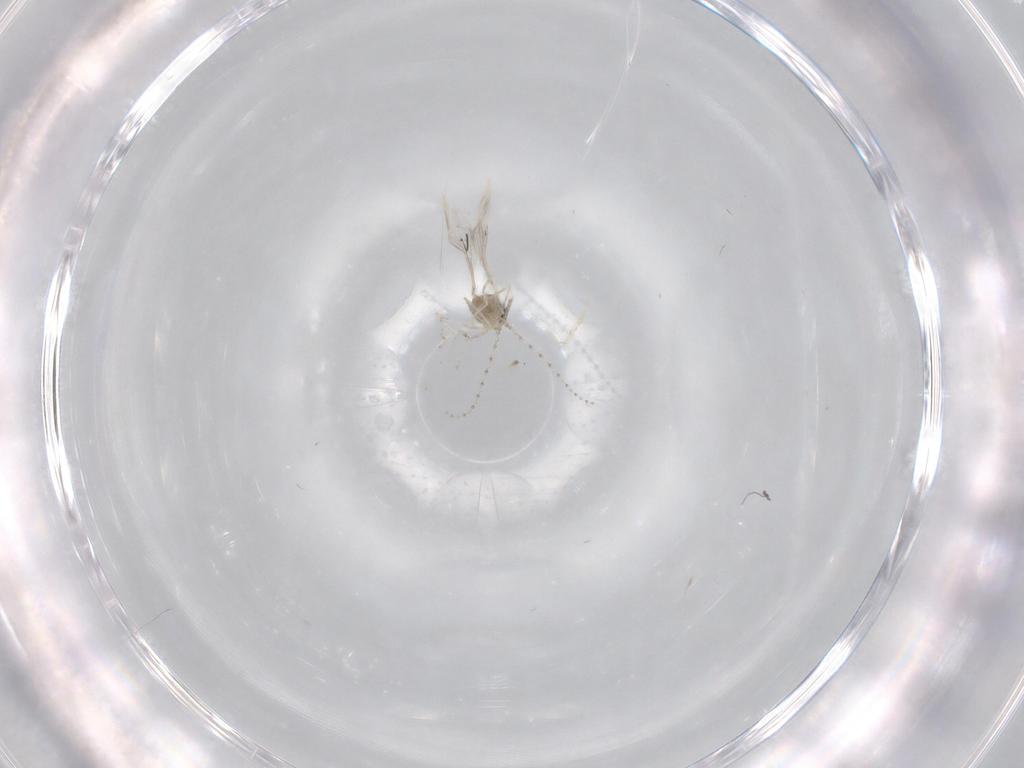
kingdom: Animalia
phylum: Arthropoda
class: Insecta
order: Diptera
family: Cecidomyiidae
